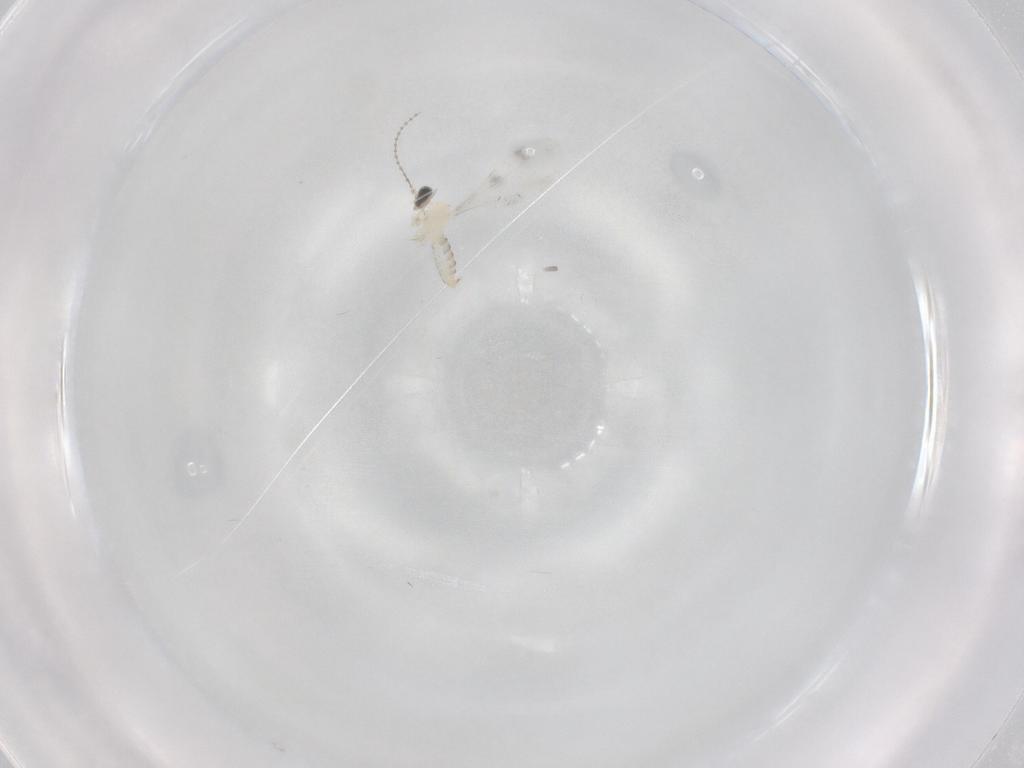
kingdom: Animalia
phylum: Arthropoda
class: Insecta
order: Diptera
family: Cecidomyiidae
